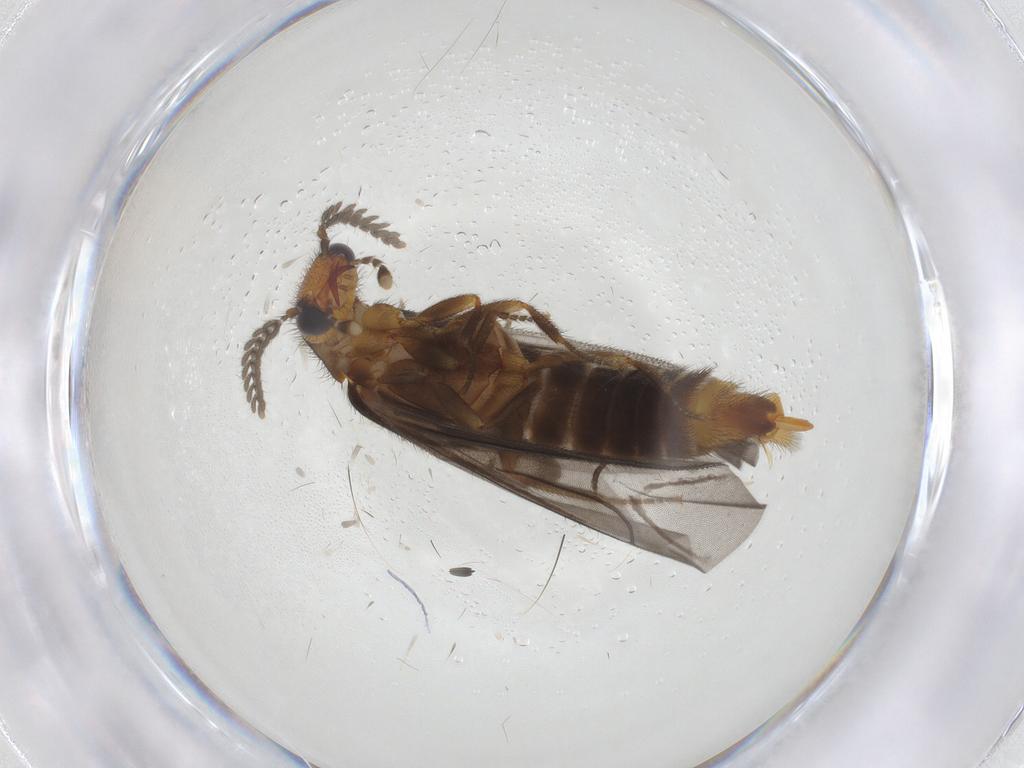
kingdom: Animalia
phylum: Arthropoda
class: Insecta
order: Coleoptera
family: Phengodidae
